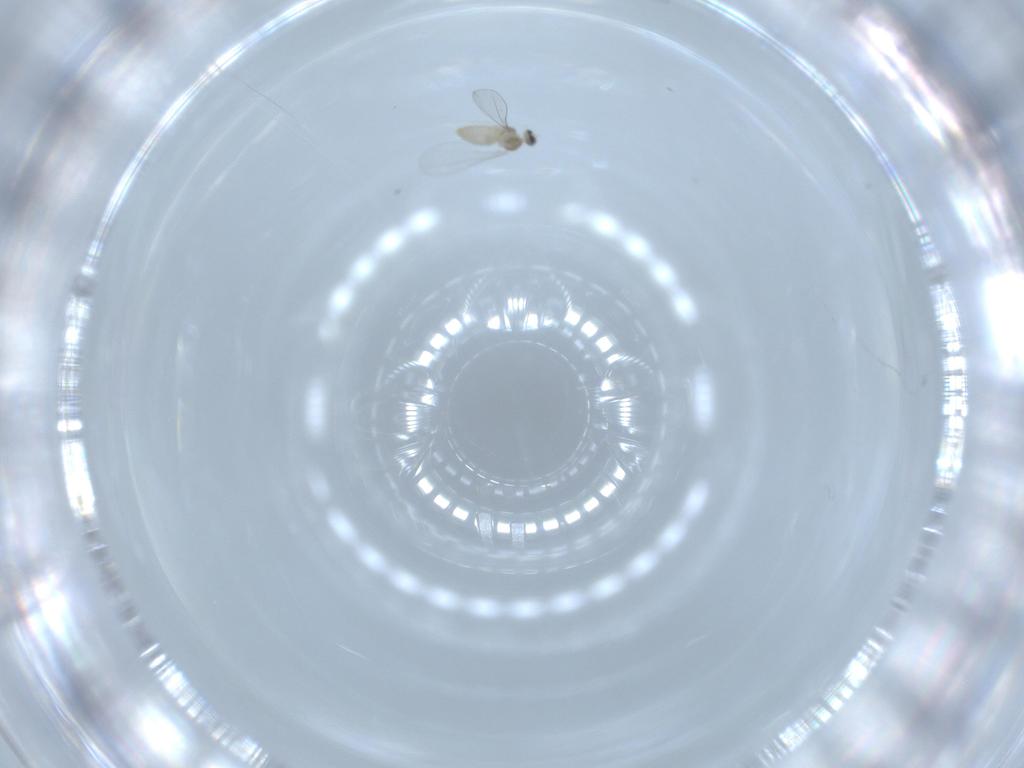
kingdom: Animalia
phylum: Arthropoda
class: Insecta
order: Diptera
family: Cecidomyiidae
